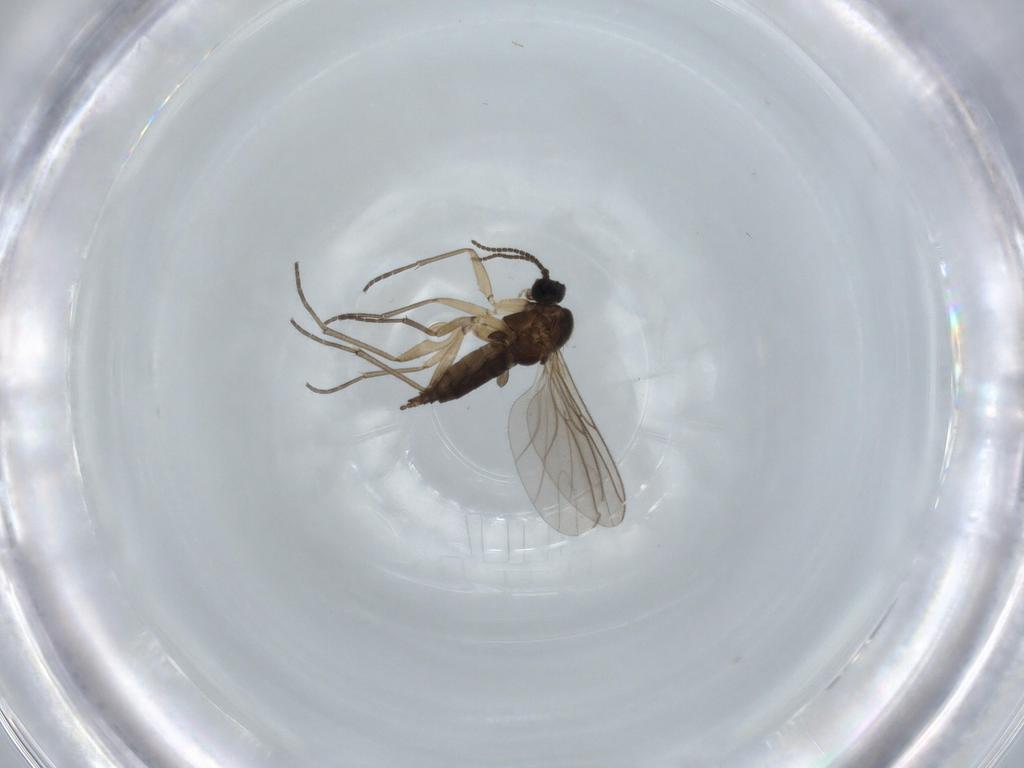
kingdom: Animalia
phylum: Arthropoda
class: Insecta
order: Diptera
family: Sciaridae
